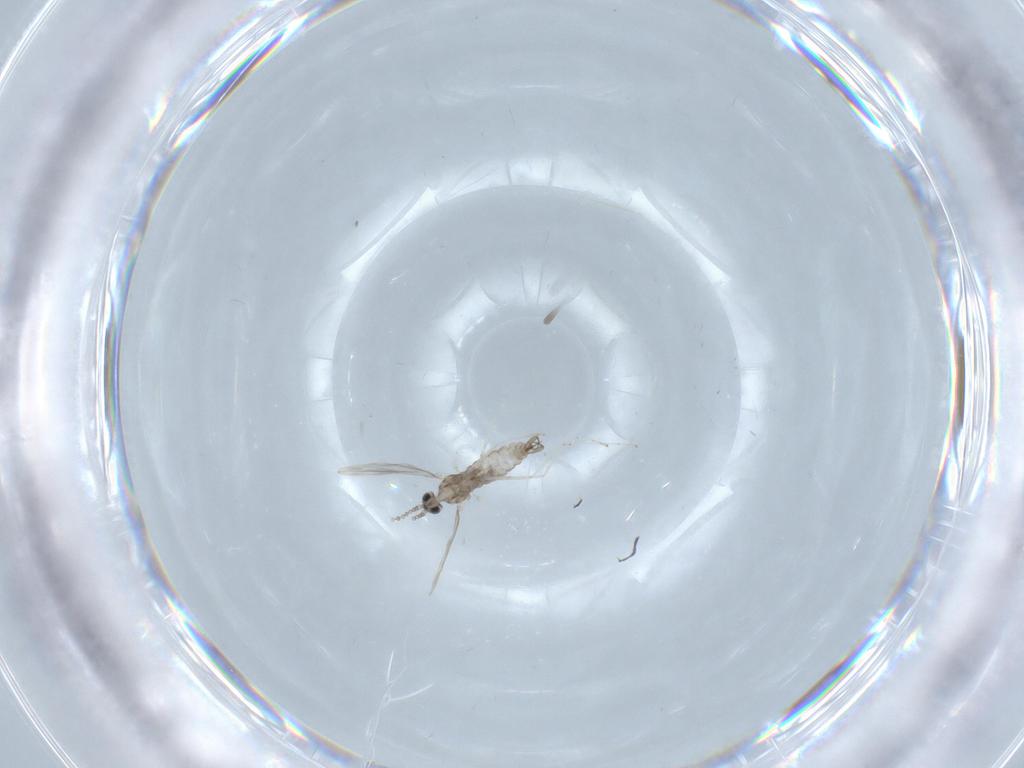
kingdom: Animalia
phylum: Arthropoda
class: Insecta
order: Diptera
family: Cecidomyiidae
